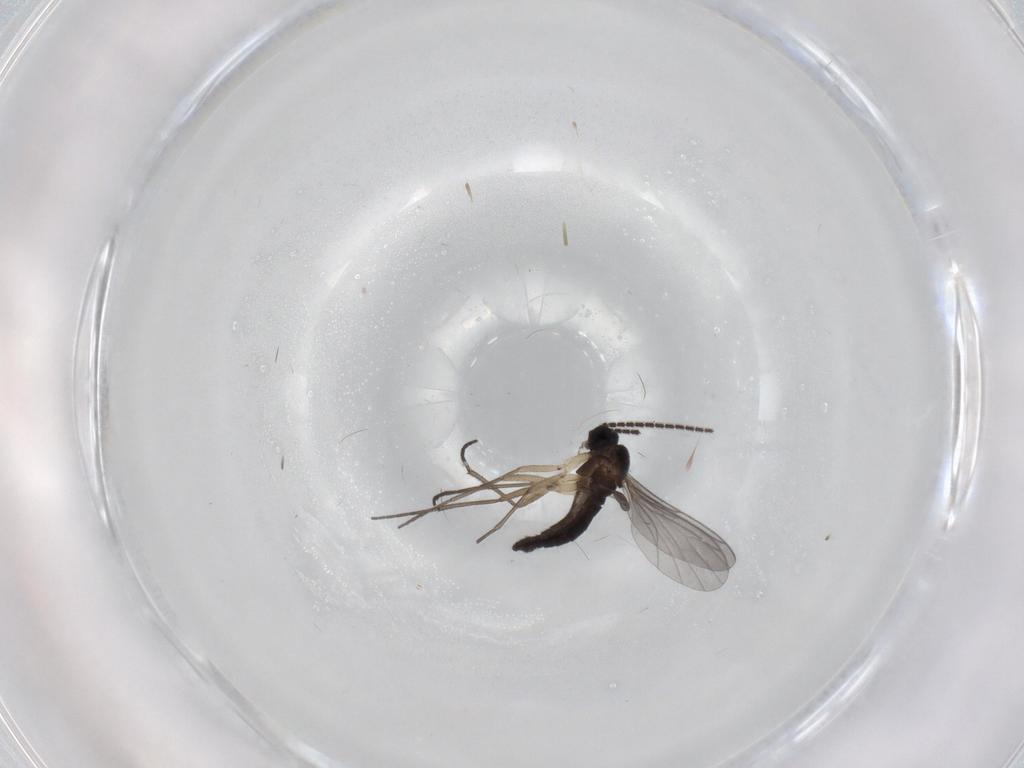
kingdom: Animalia
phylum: Arthropoda
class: Insecta
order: Diptera
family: Sciaridae
